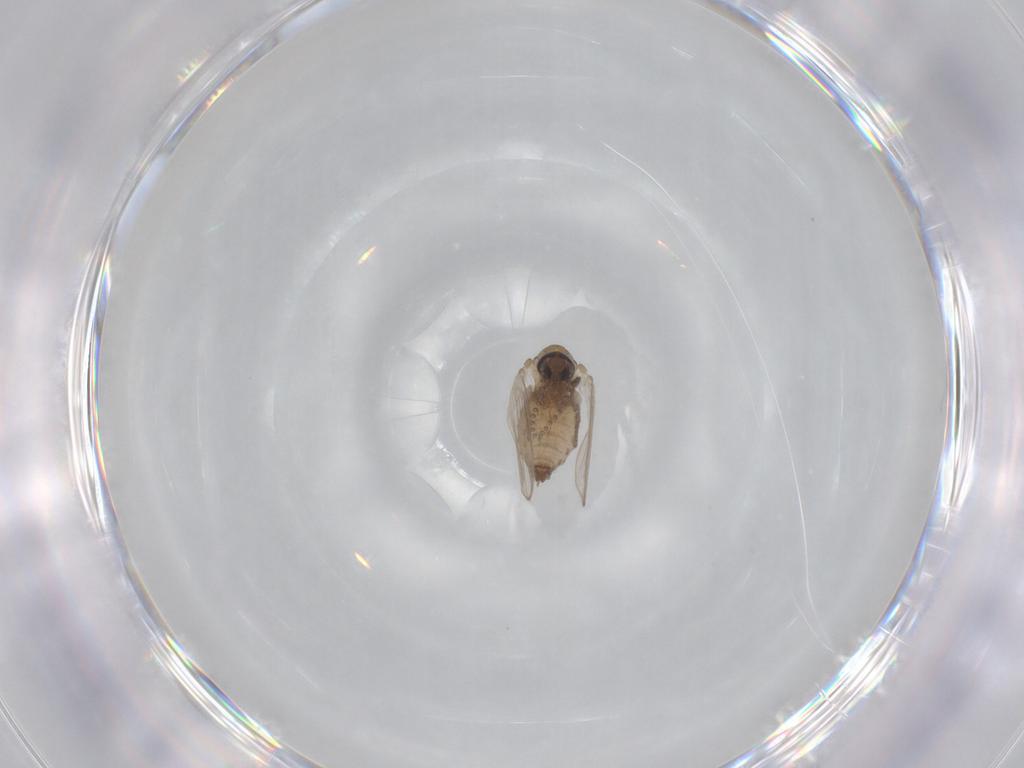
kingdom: Animalia
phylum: Arthropoda
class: Insecta
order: Diptera
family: Psychodidae
